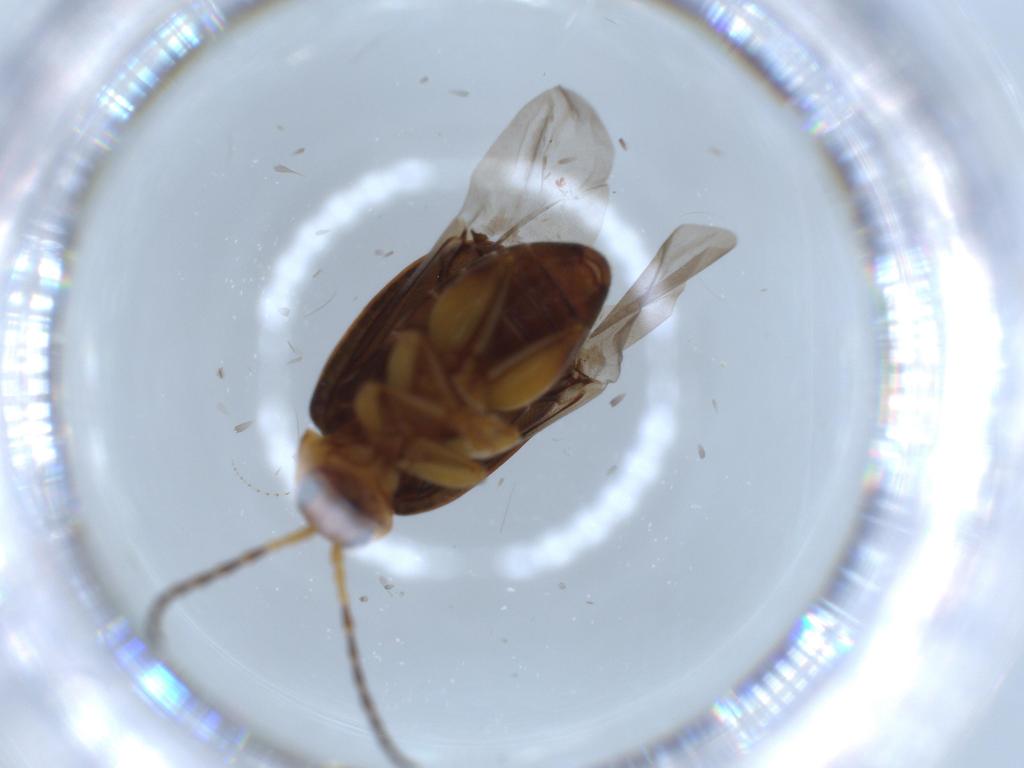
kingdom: Animalia
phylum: Arthropoda
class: Insecta
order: Coleoptera
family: Chrysomelidae
